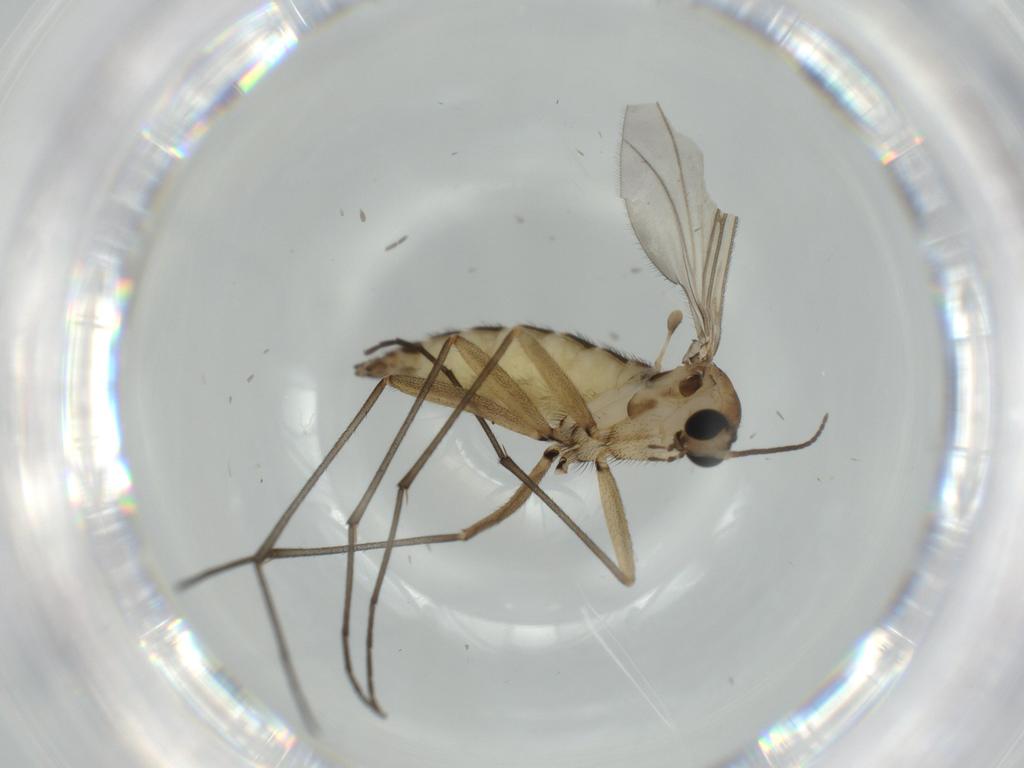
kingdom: Animalia
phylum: Arthropoda
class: Insecta
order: Diptera
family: Sciaridae
